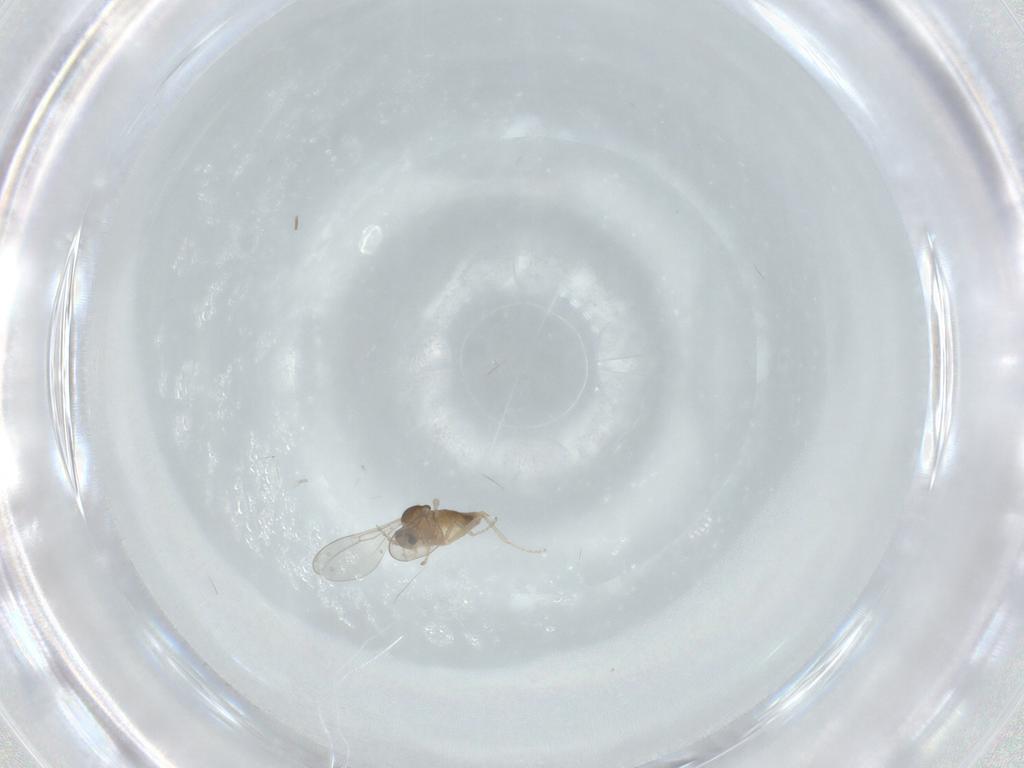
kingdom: Animalia
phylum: Arthropoda
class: Insecta
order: Diptera
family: Cecidomyiidae
